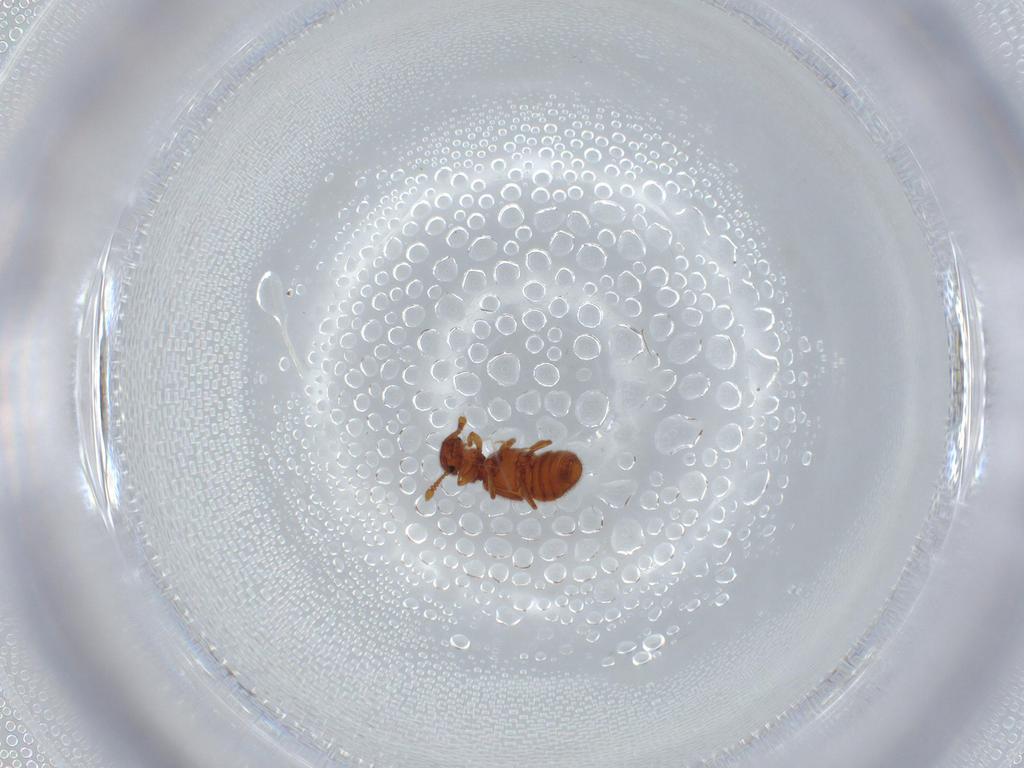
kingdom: Animalia
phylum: Arthropoda
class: Insecta
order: Coleoptera
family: Staphylinidae
